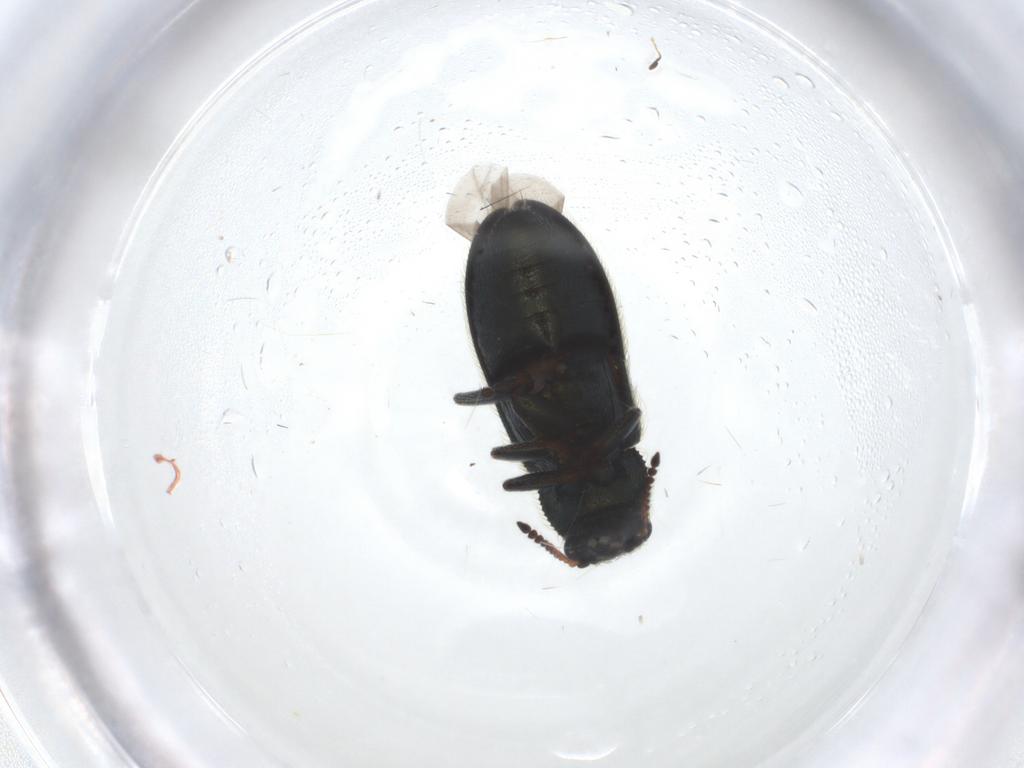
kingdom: Animalia
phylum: Arthropoda
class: Insecta
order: Coleoptera
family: Melyridae
